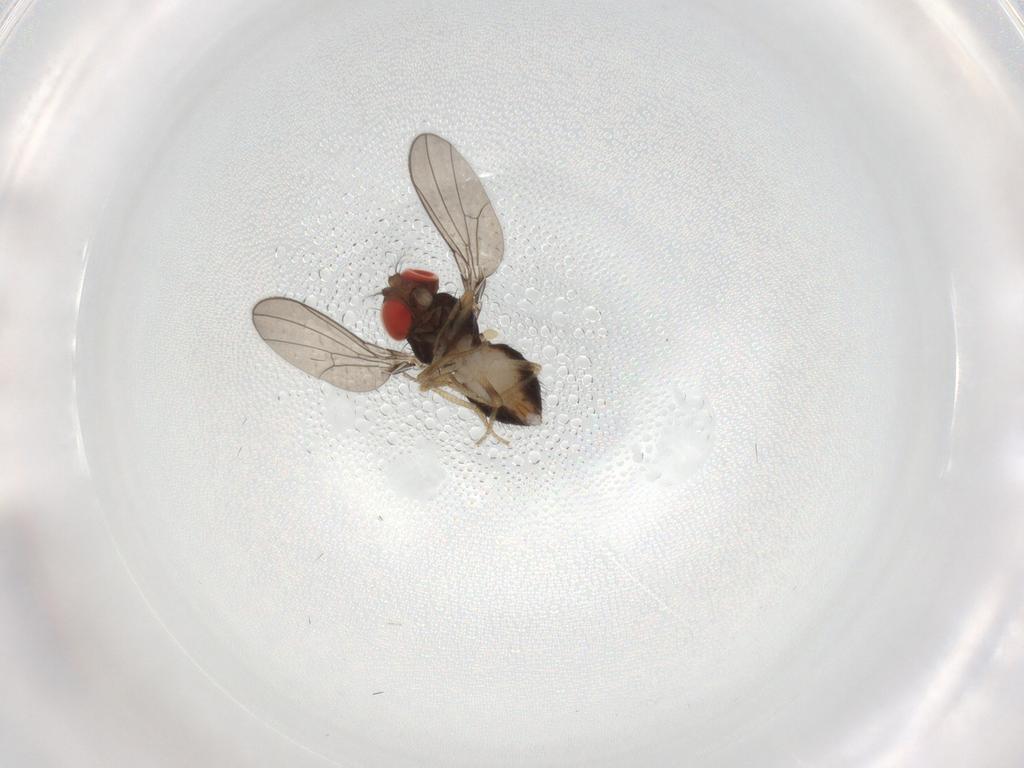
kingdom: Animalia
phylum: Arthropoda
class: Insecta
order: Diptera
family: Drosophilidae
